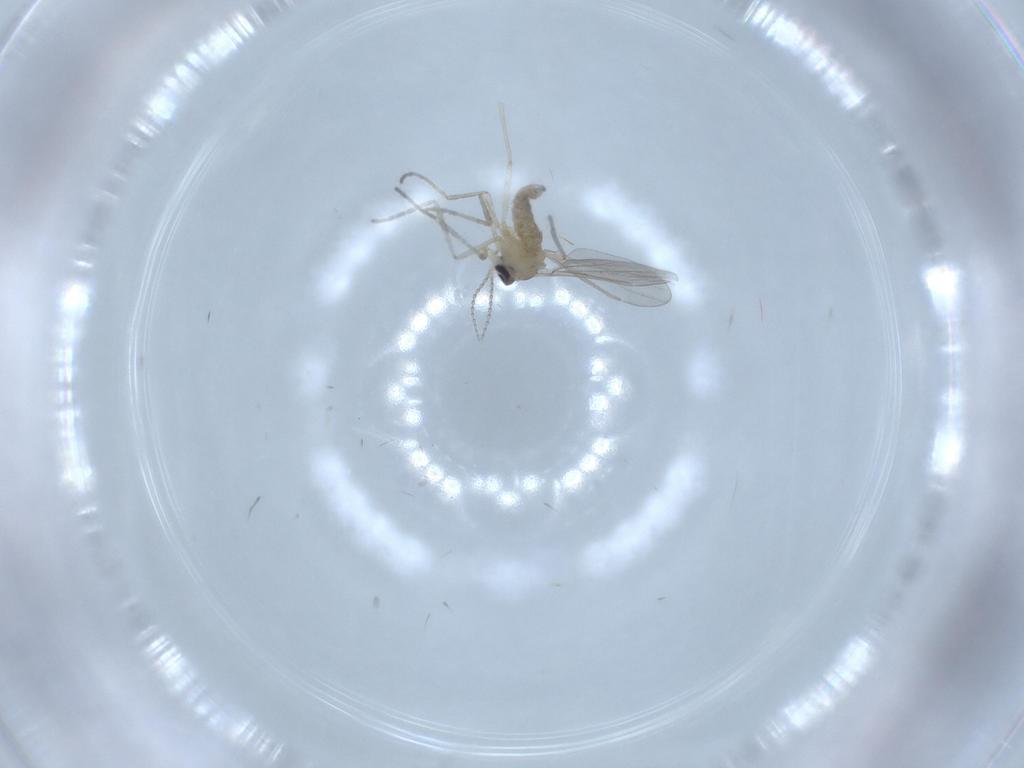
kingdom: Animalia
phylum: Arthropoda
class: Insecta
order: Diptera
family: Cecidomyiidae
